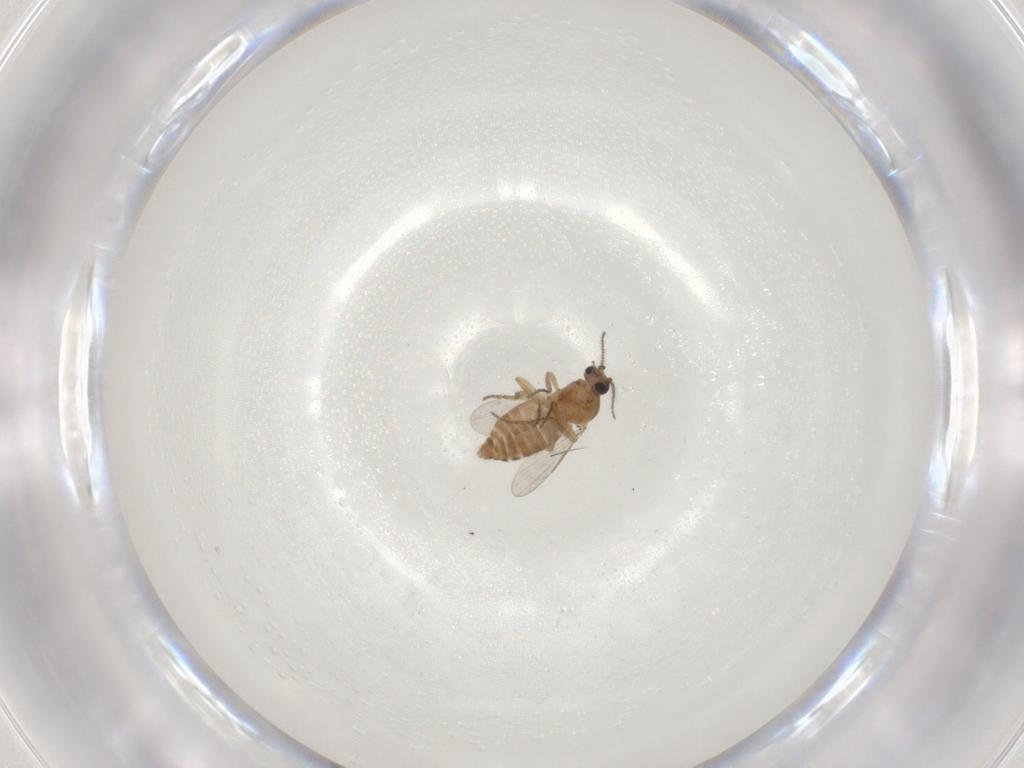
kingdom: Animalia
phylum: Arthropoda
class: Insecta
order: Diptera
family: Ceratopogonidae
